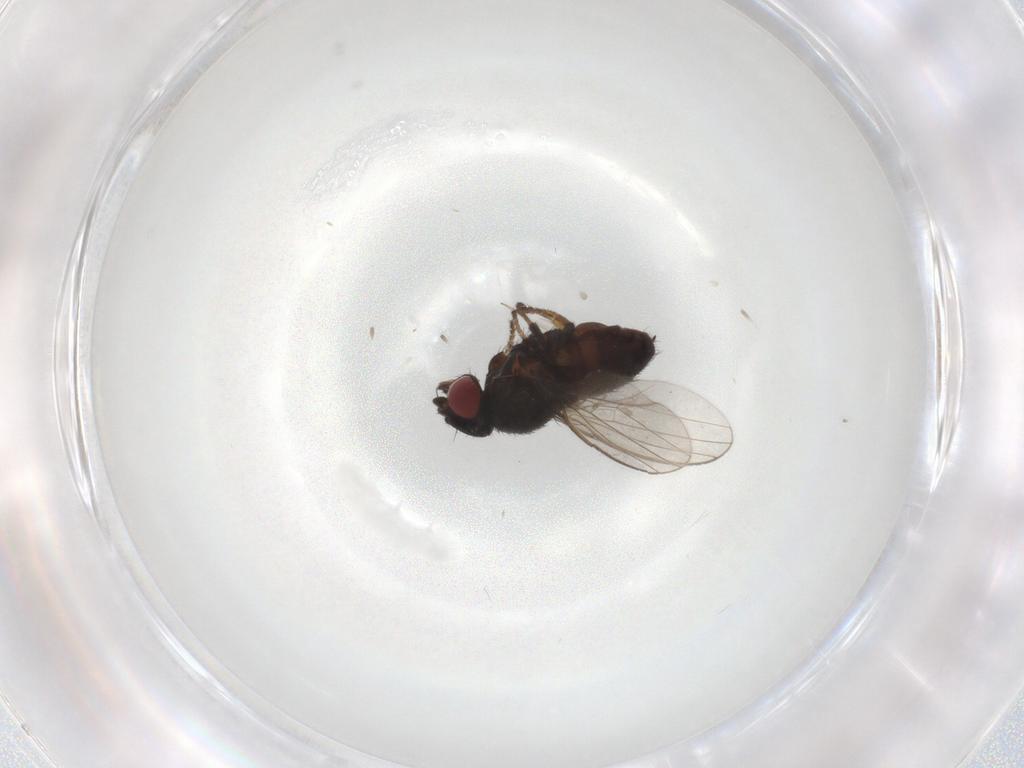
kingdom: Animalia
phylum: Arthropoda
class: Insecta
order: Diptera
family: Milichiidae
